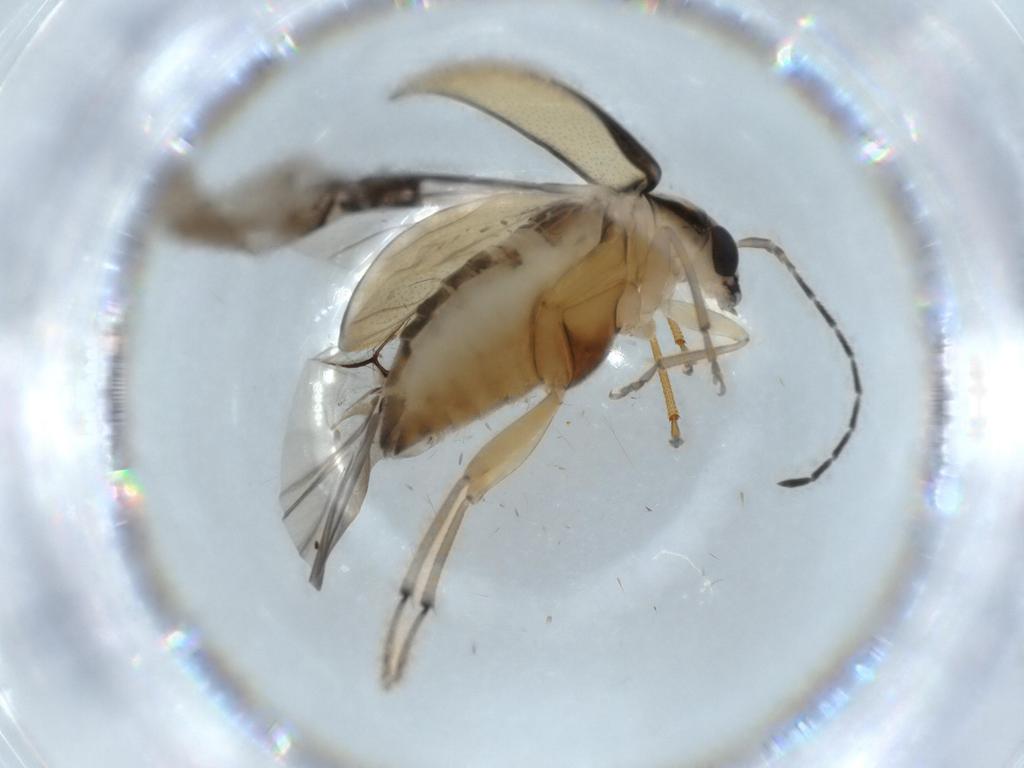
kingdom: Animalia
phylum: Arthropoda
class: Insecta
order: Coleoptera
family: Chrysomelidae
